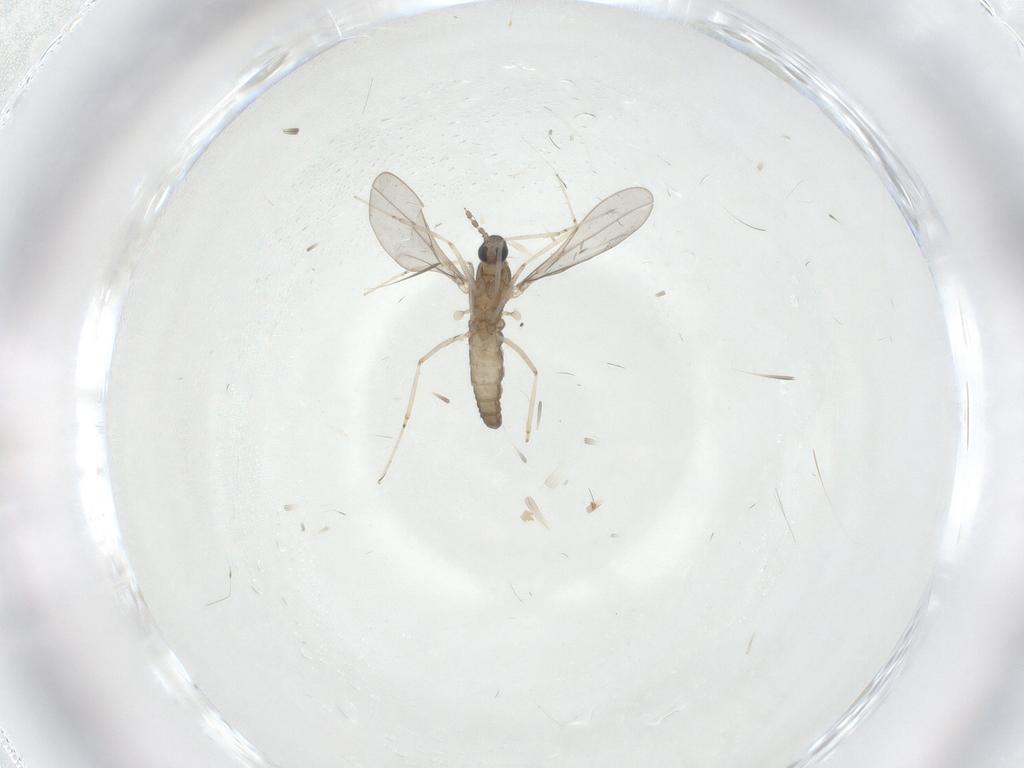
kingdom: Animalia
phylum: Arthropoda
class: Insecta
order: Diptera
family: Cecidomyiidae
